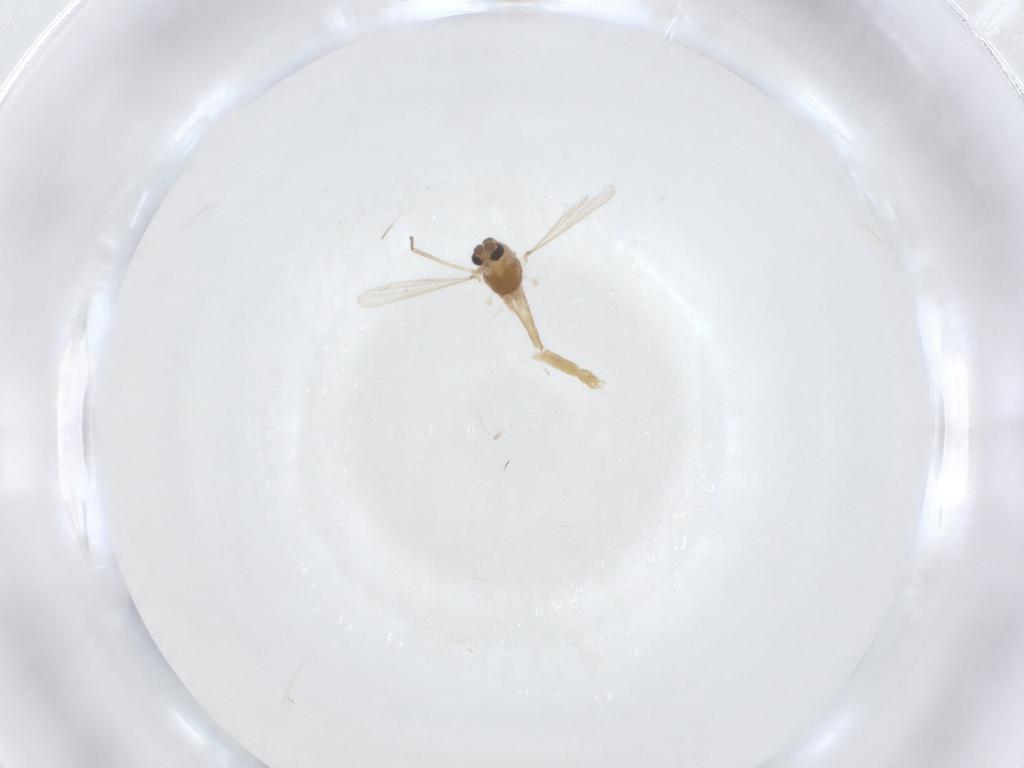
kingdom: Animalia
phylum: Arthropoda
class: Insecta
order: Diptera
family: Chironomidae
